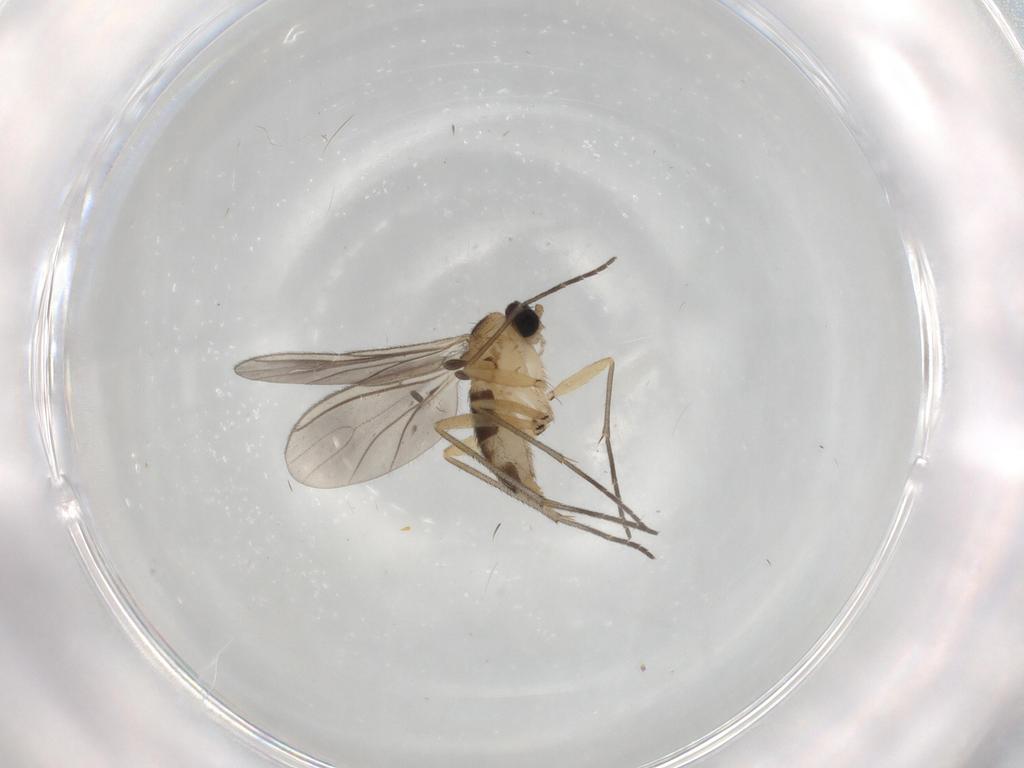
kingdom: Animalia
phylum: Arthropoda
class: Insecta
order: Diptera
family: Sciaridae
